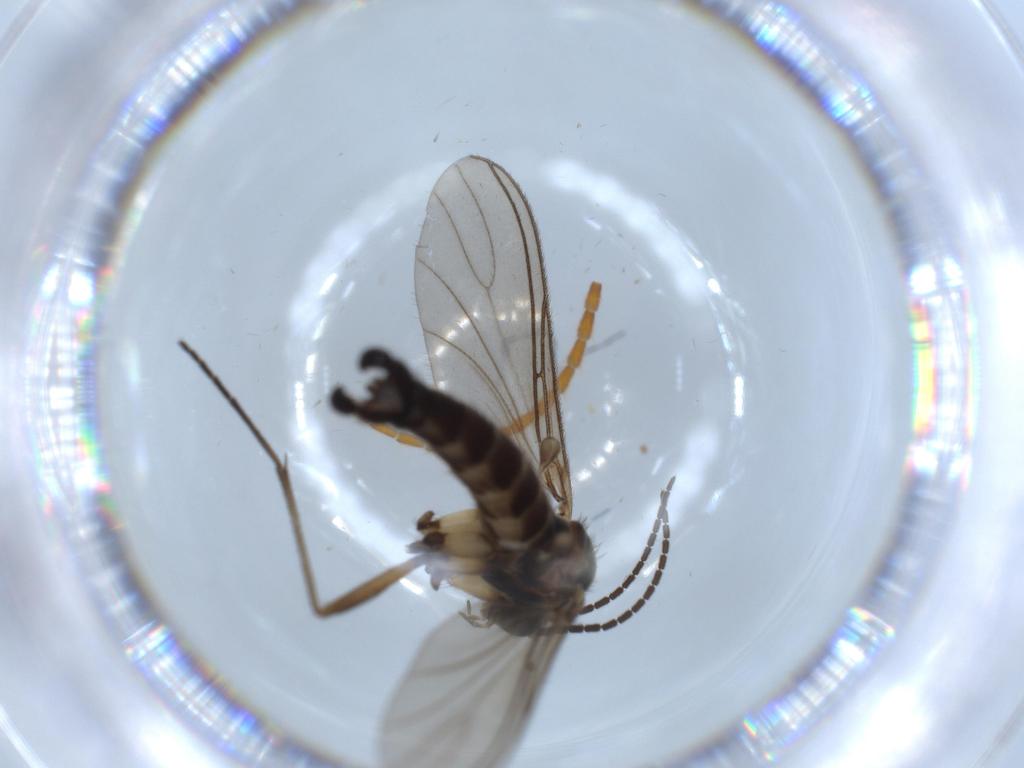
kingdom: Animalia
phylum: Arthropoda
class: Insecta
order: Diptera
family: Sciaridae
